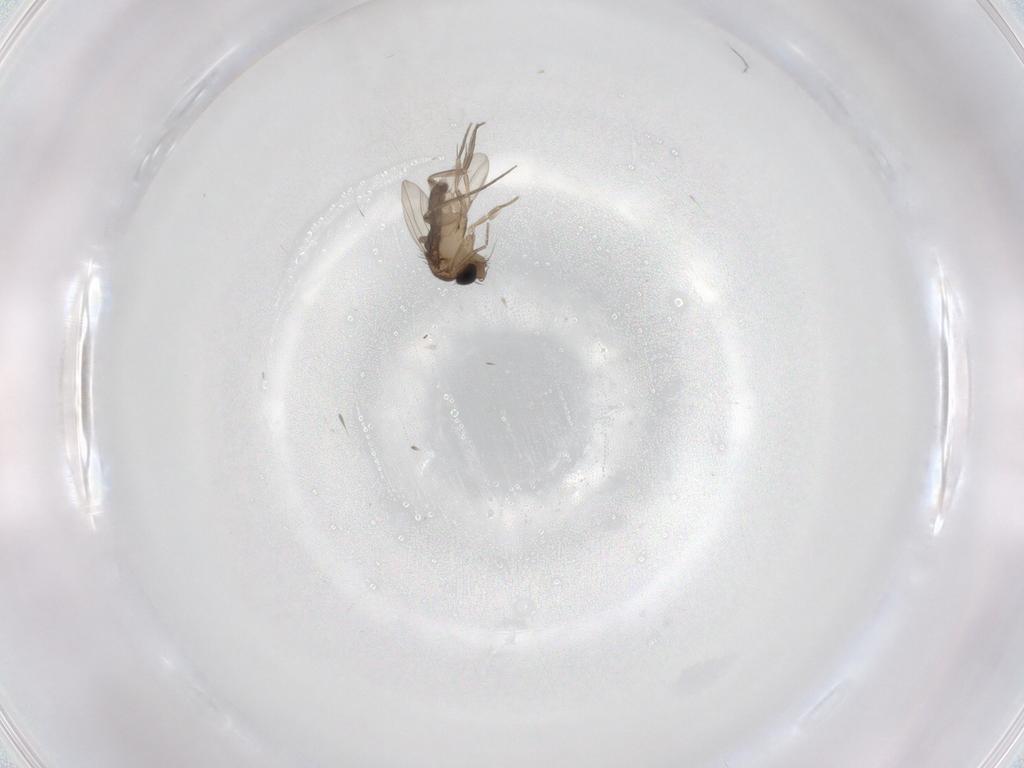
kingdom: Animalia
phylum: Arthropoda
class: Insecta
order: Diptera
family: Phoridae
